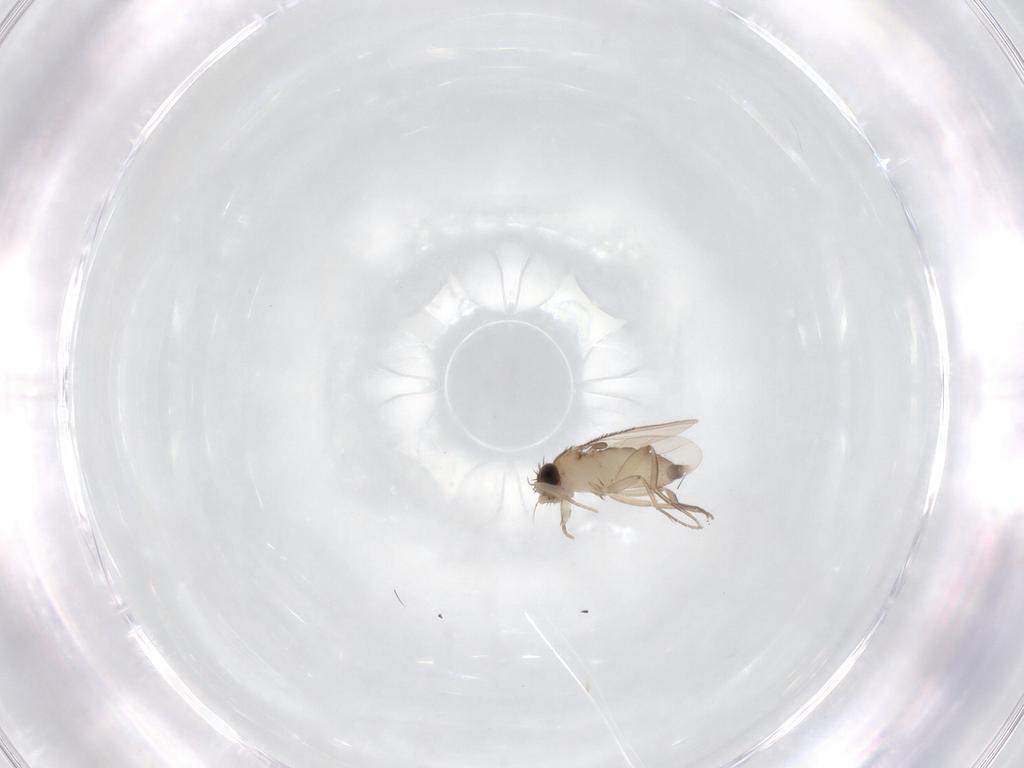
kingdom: Animalia
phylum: Arthropoda
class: Insecta
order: Diptera
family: Phoridae
